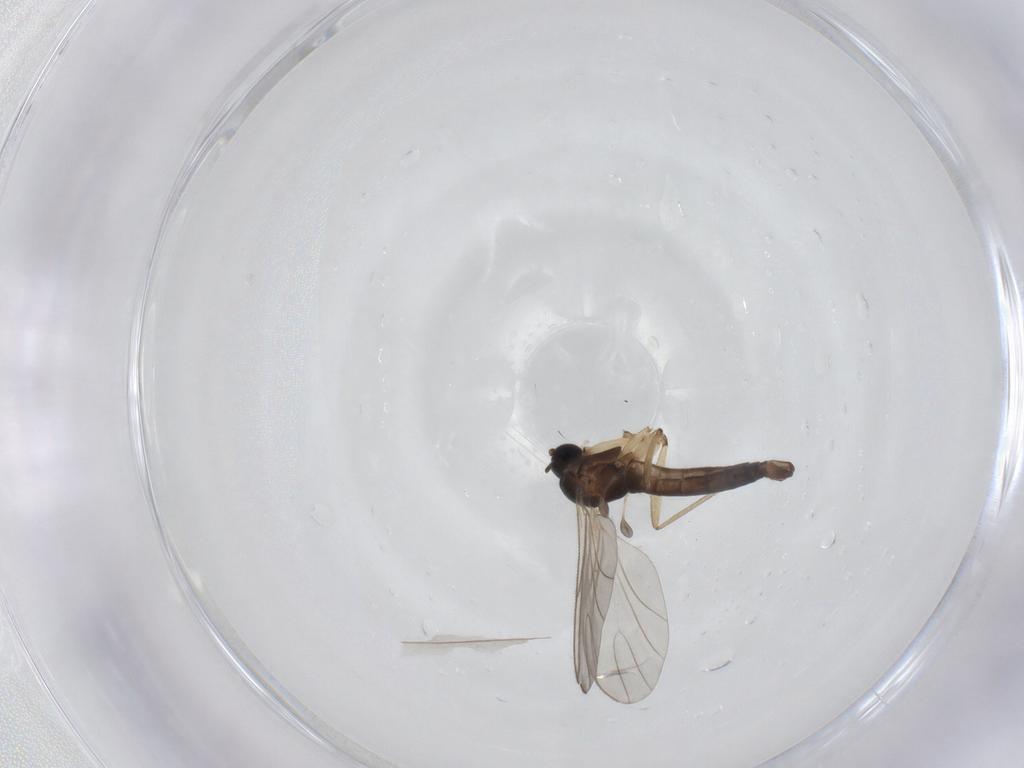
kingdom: Animalia
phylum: Arthropoda
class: Insecta
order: Diptera
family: Sciaridae
